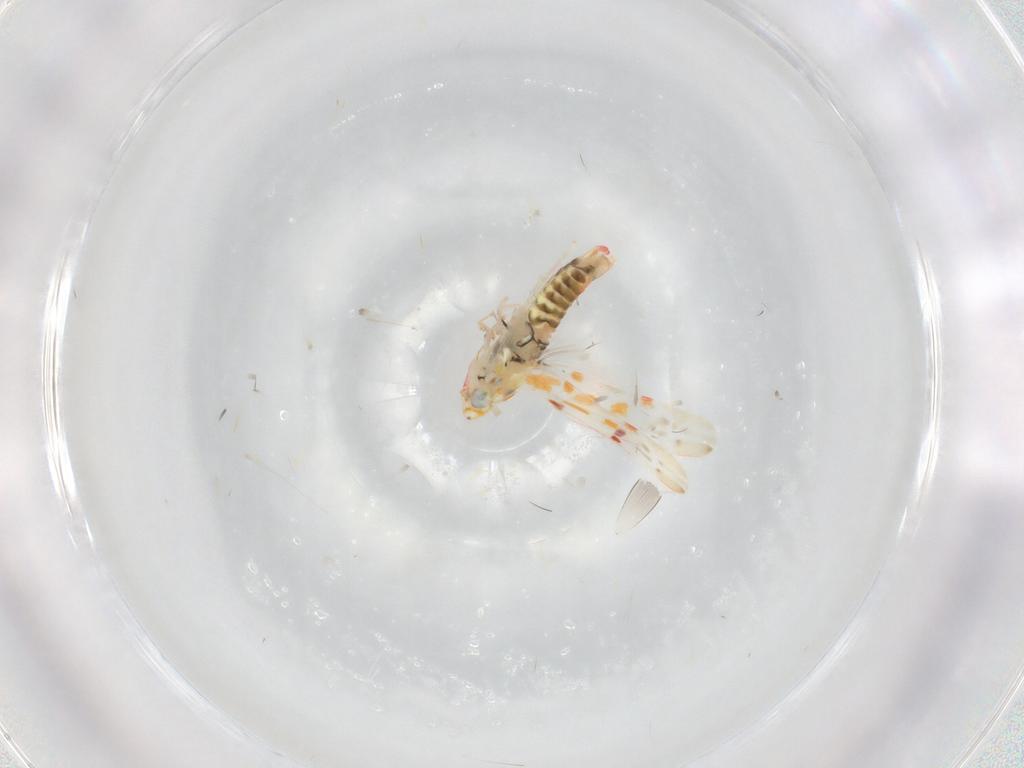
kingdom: Animalia
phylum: Arthropoda
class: Insecta
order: Hemiptera
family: Cicadellidae
